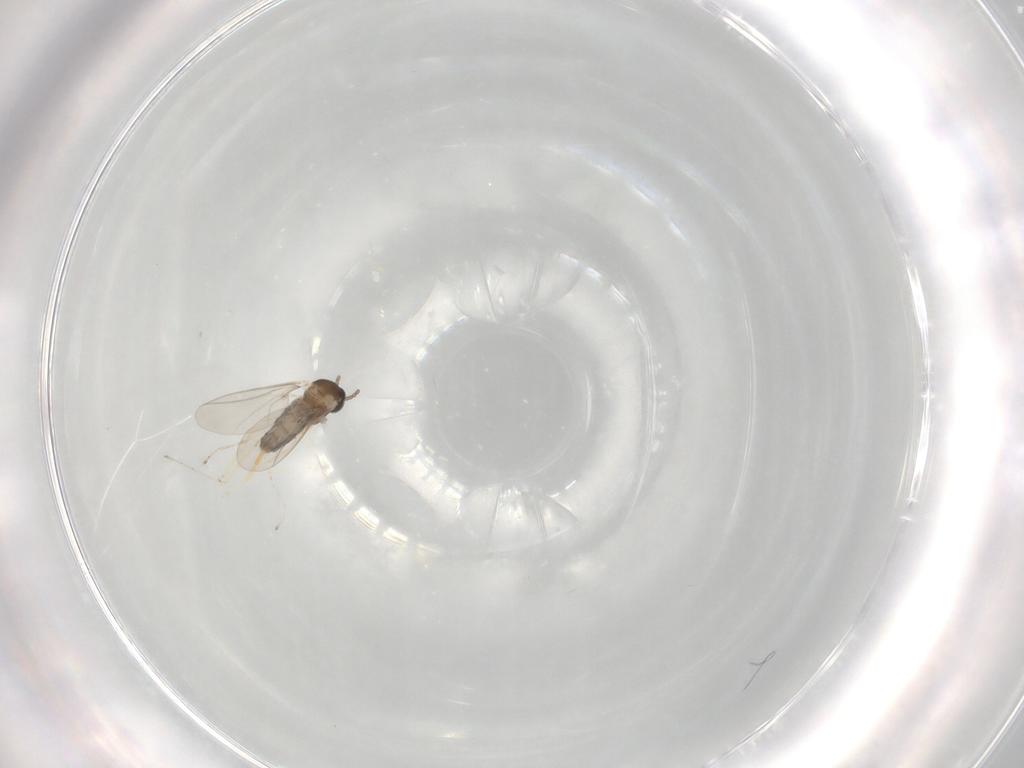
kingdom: Animalia
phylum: Arthropoda
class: Insecta
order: Diptera
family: Cecidomyiidae
